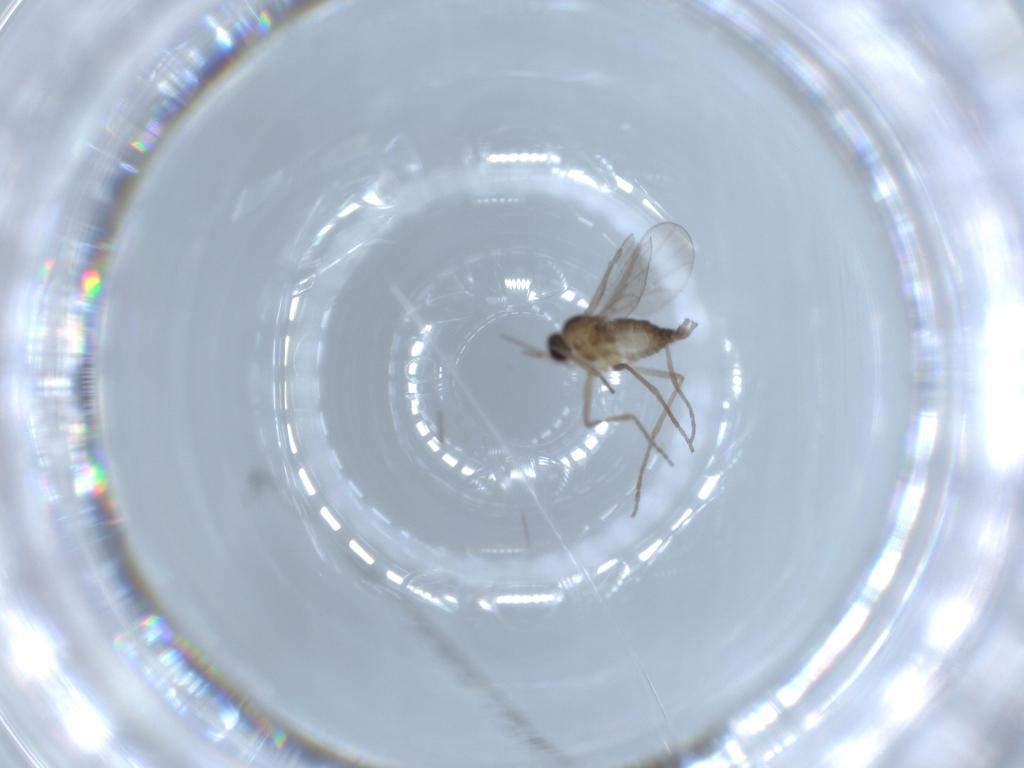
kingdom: Animalia
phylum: Arthropoda
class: Insecta
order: Diptera
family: Cecidomyiidae
